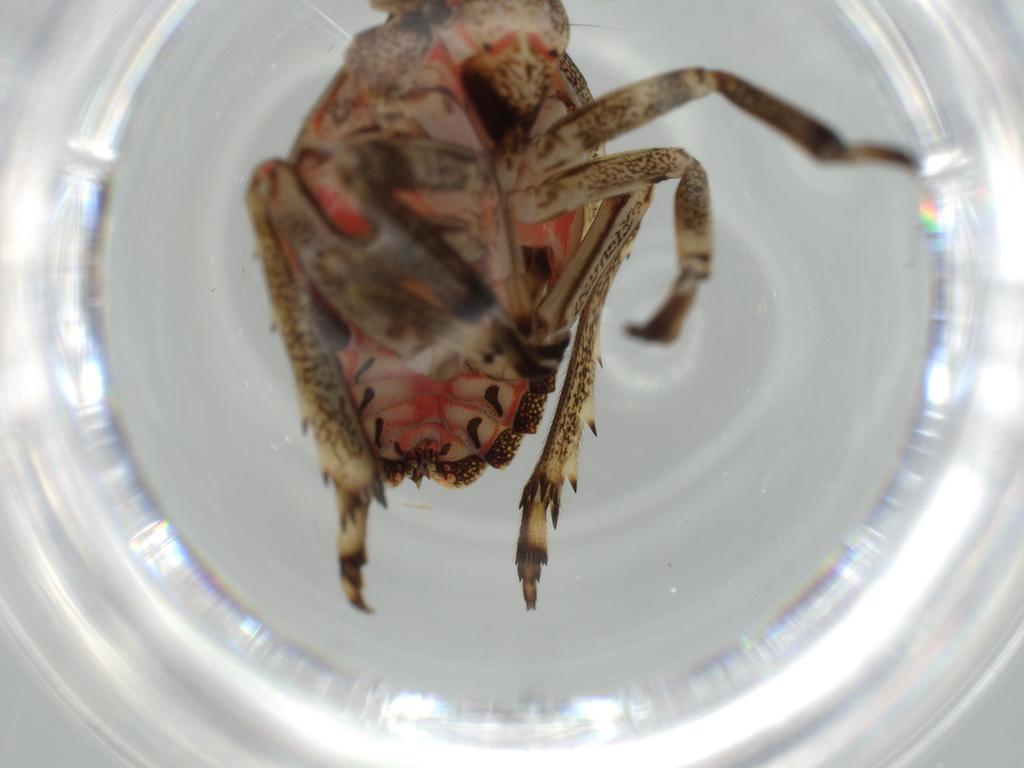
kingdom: Animalia
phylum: Arthropoda
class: Insecta
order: Hemiptera
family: Issidae
